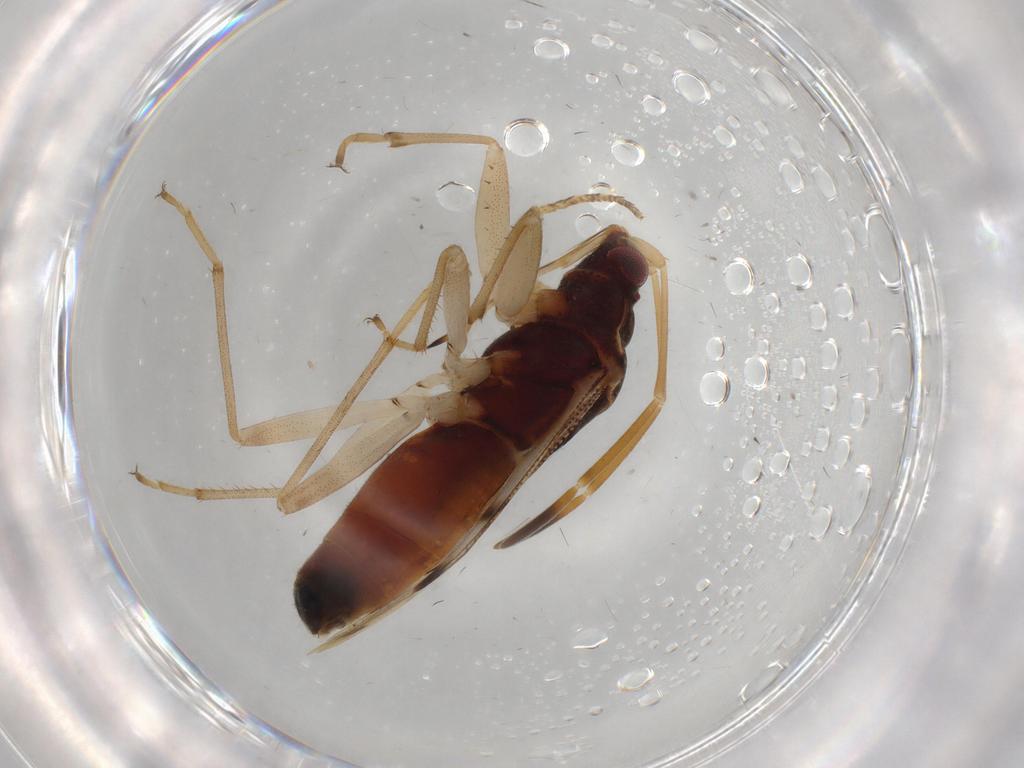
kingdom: Animalia
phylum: Arthropoda
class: Insecta
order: Hemiptera
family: Rhyparochromidae
